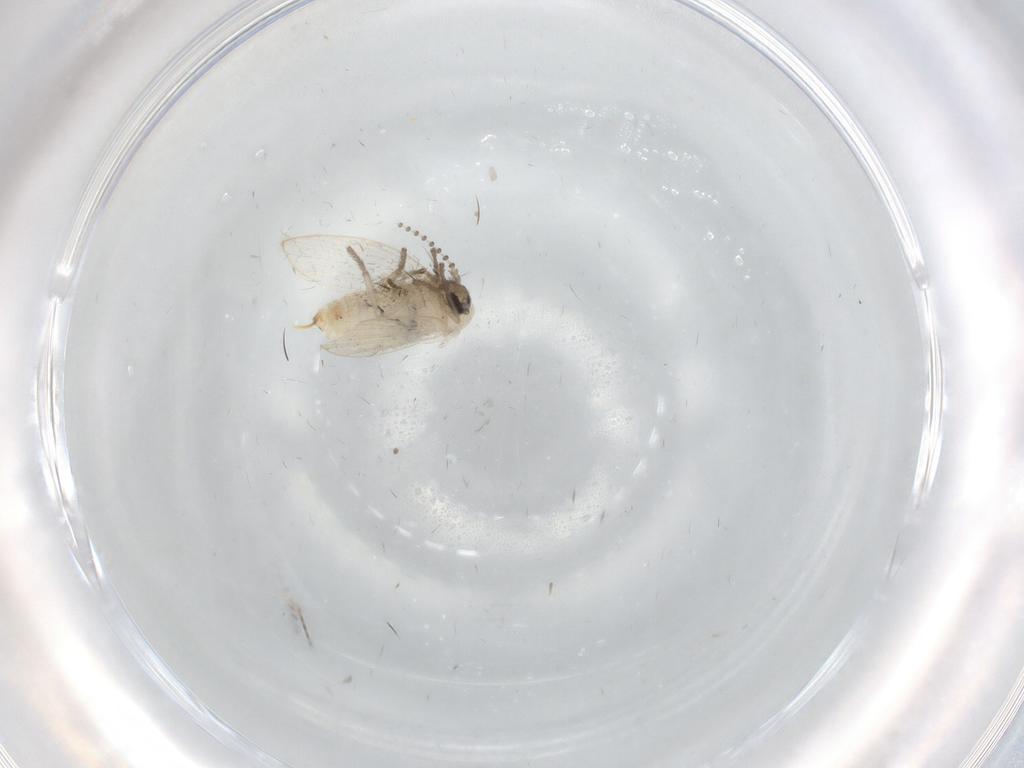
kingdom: Animalia
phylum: Arthropoda
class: Insecta
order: Diptera
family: Psychodidae
